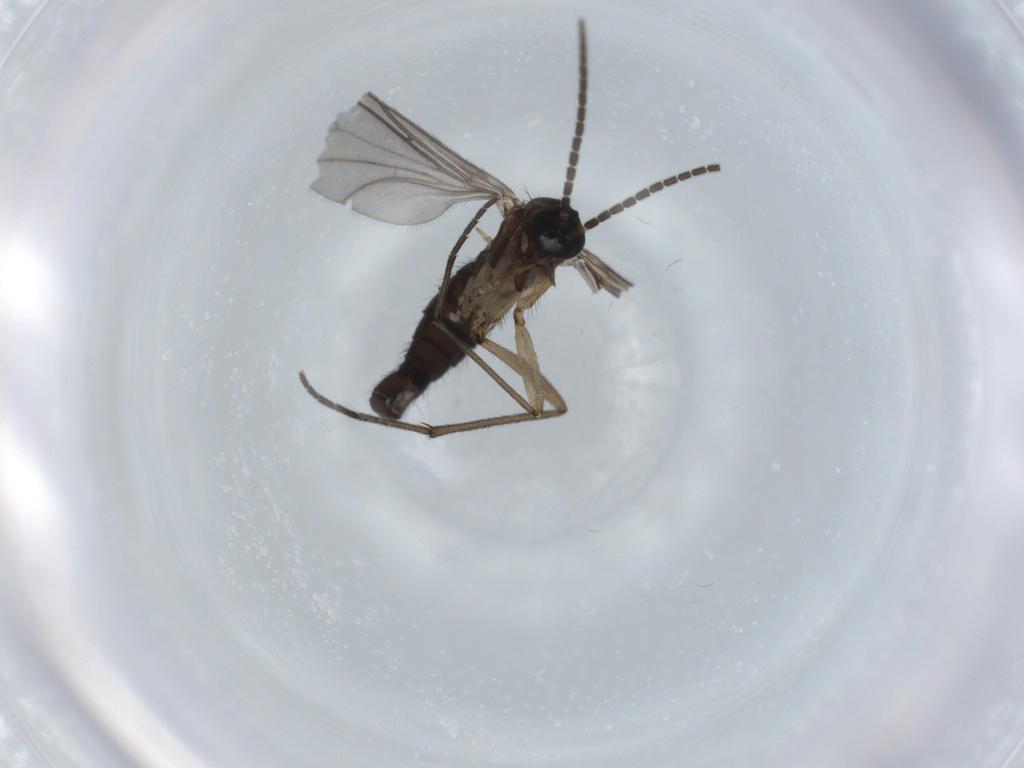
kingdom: Animalia
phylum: Arthropoda
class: Insecta
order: Diptera
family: Sciaridae
